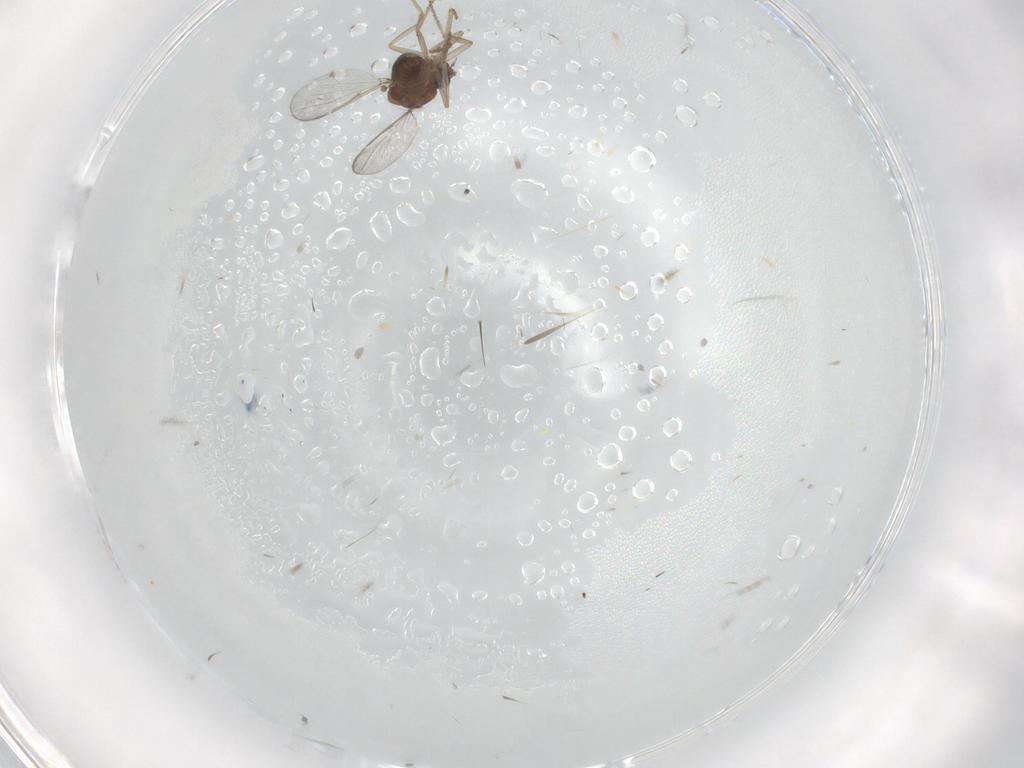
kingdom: Animalia
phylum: Arthropoda
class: Insecta
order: Diptera
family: Cecidomyiidae
